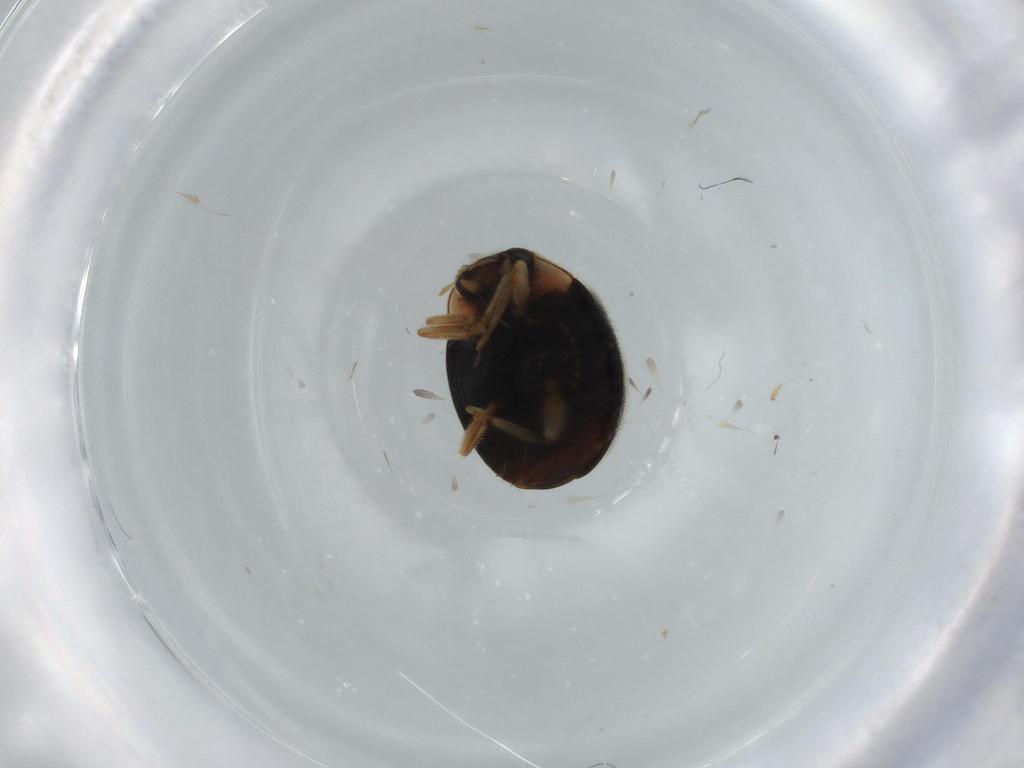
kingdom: Animalia
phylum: Arthropoda
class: Insecta
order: Coleoptera
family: Coccinellidae
